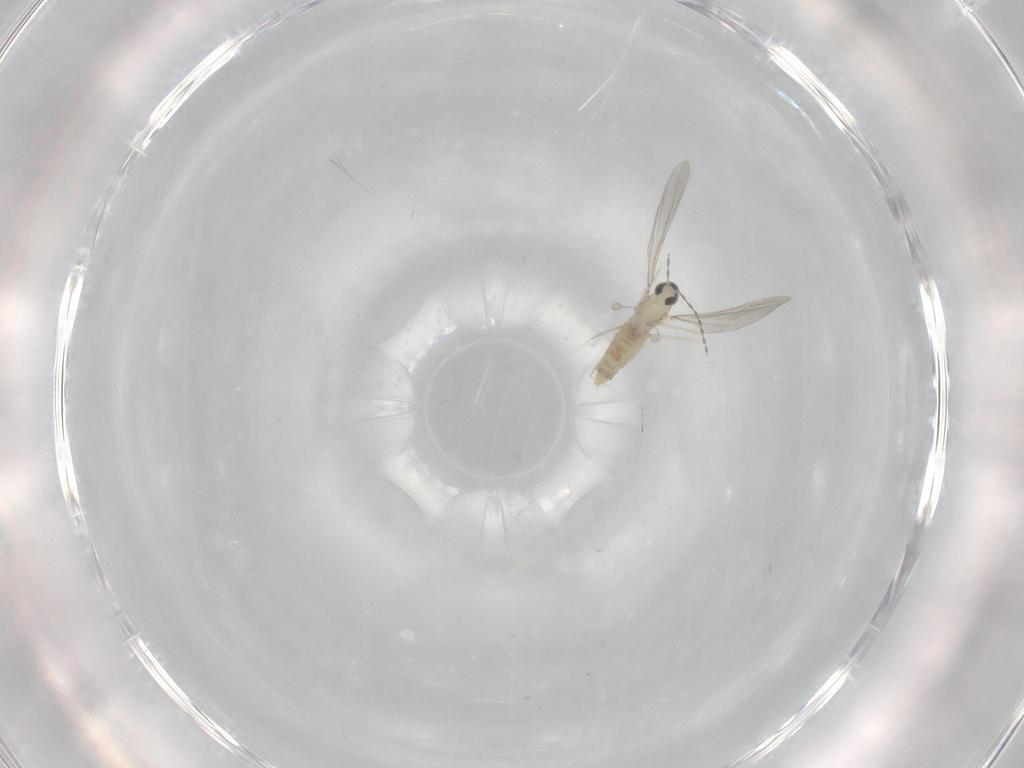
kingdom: Animalia
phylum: Arthropoda
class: Insecta
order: Diptera
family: Cecidomyiidae
